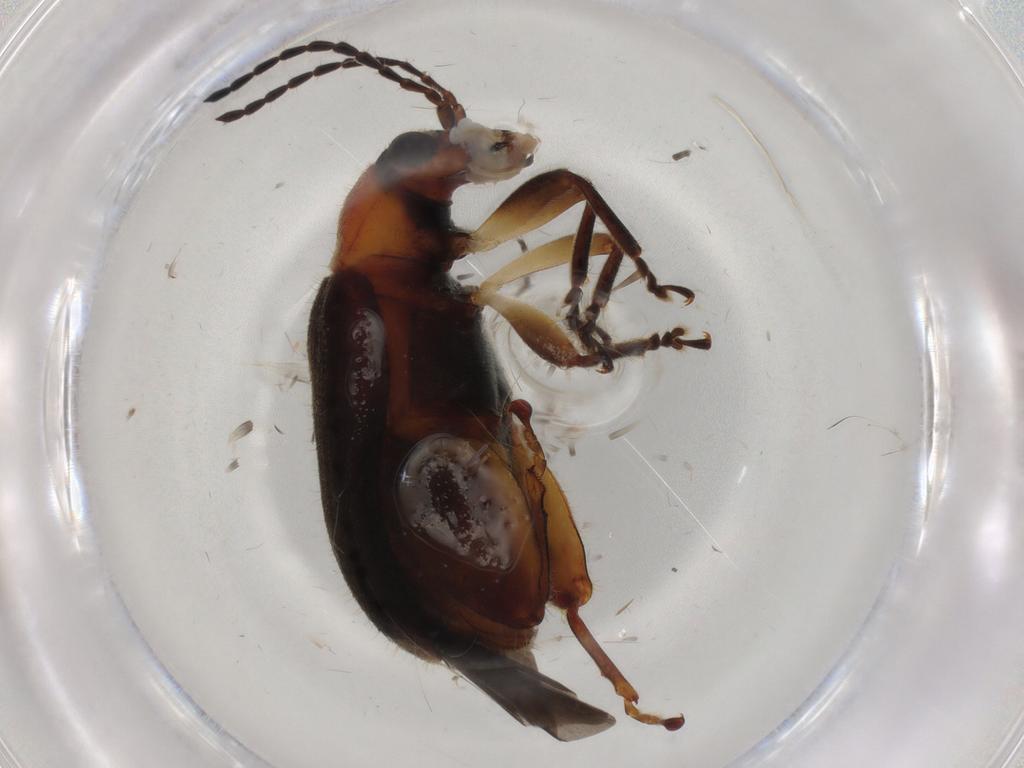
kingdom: Animalia
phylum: Arthropoda
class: Insecta
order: Coleoptera
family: Chrysomelidae
